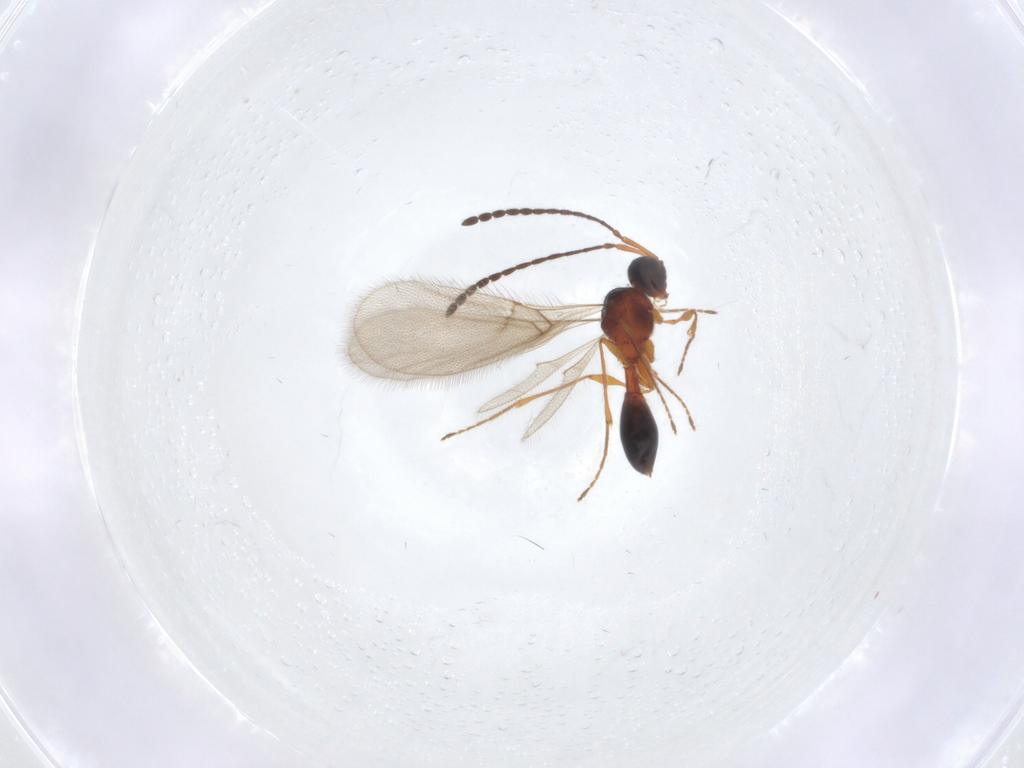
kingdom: Animalia
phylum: Arthropoda
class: Insecta
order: Hymenoptera
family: Diapriidae
